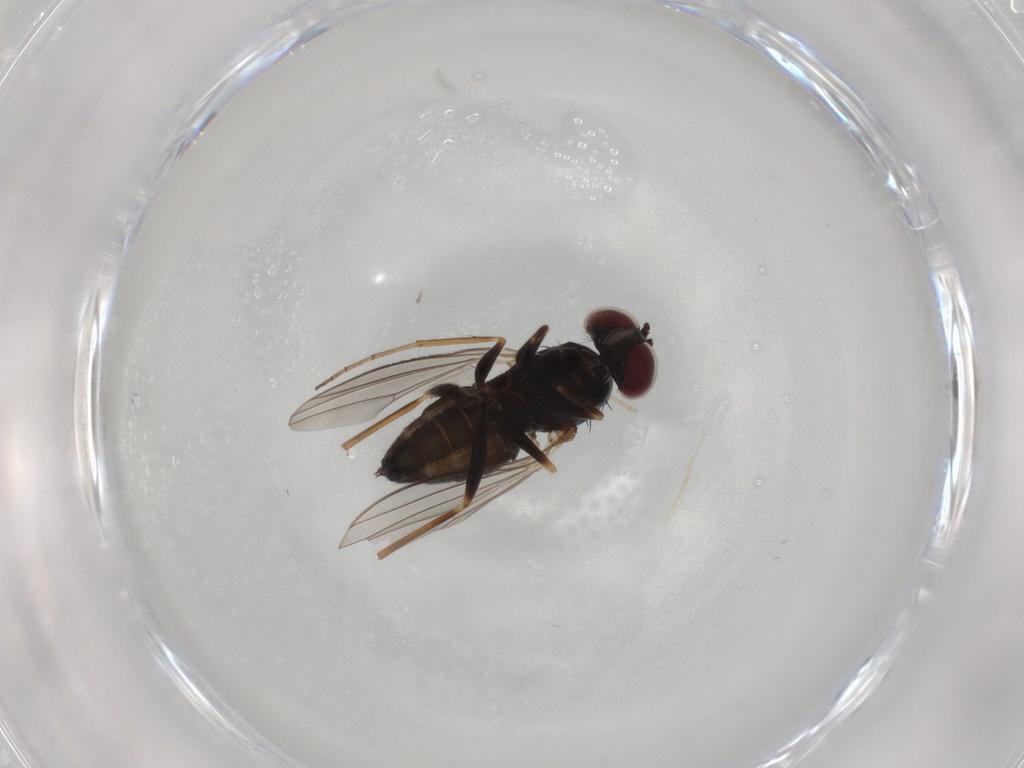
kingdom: Animalia
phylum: Arthropoda
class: Insecta
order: Diptera
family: Dolichopodidae
